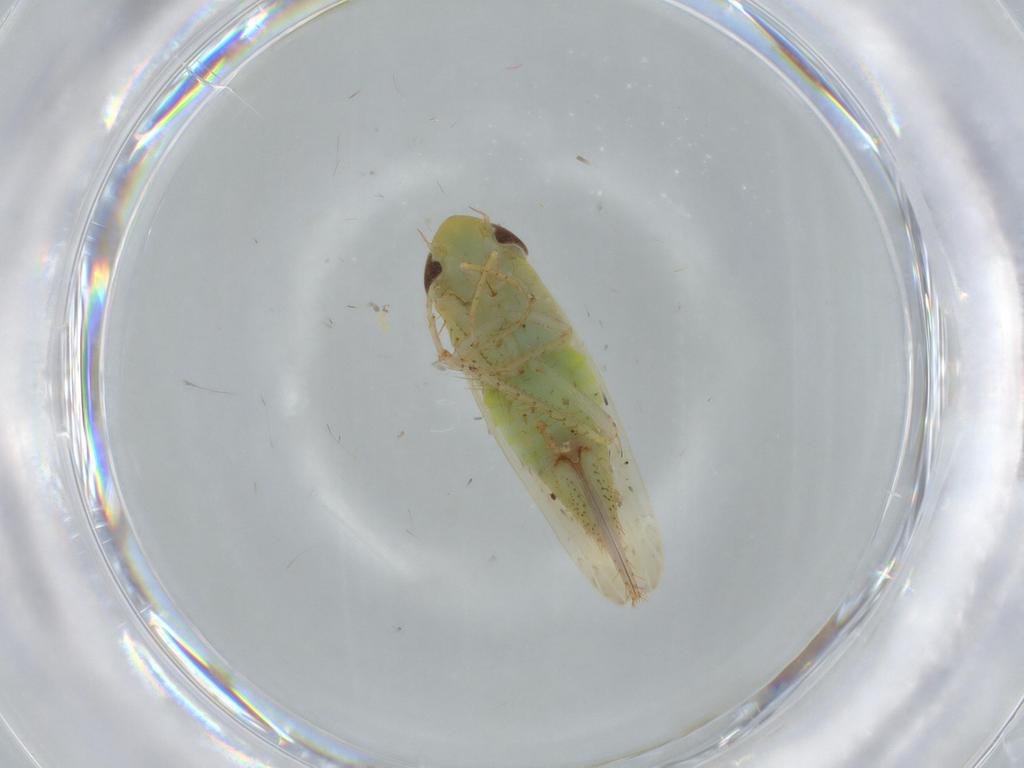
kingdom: Animalia
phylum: Arthropoda
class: Insecta
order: Hemiptera
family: Cicadellidae
